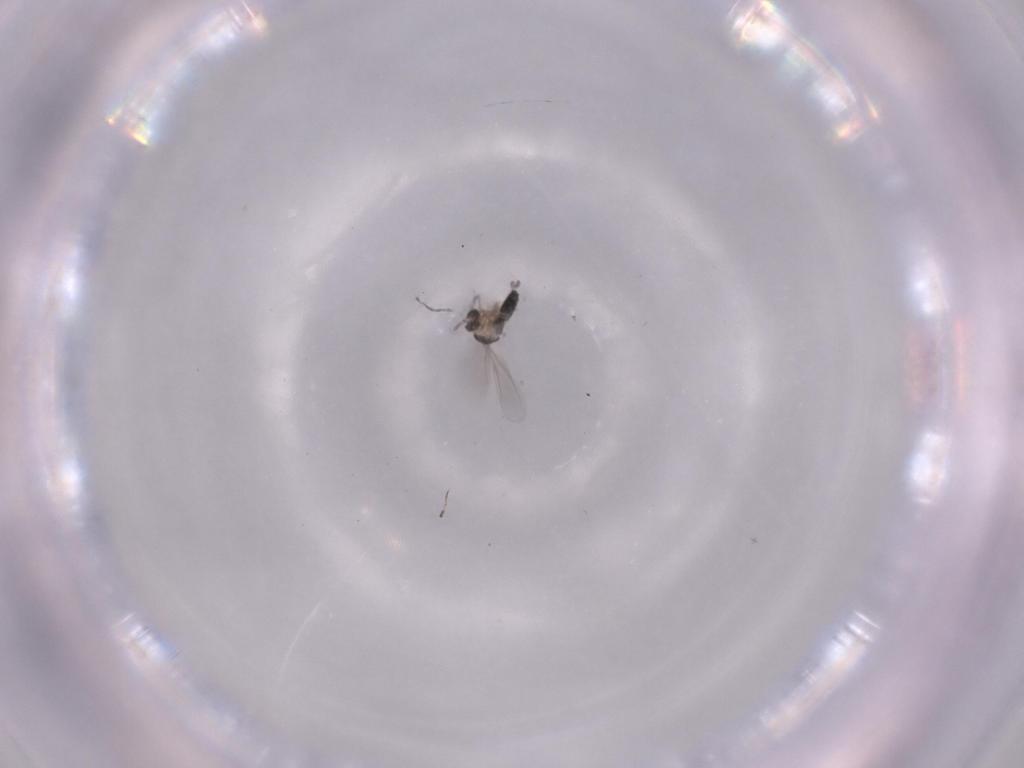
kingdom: Animalia
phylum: Arthropoda
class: Insecta
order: Diptera
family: Cecidomyiidae
